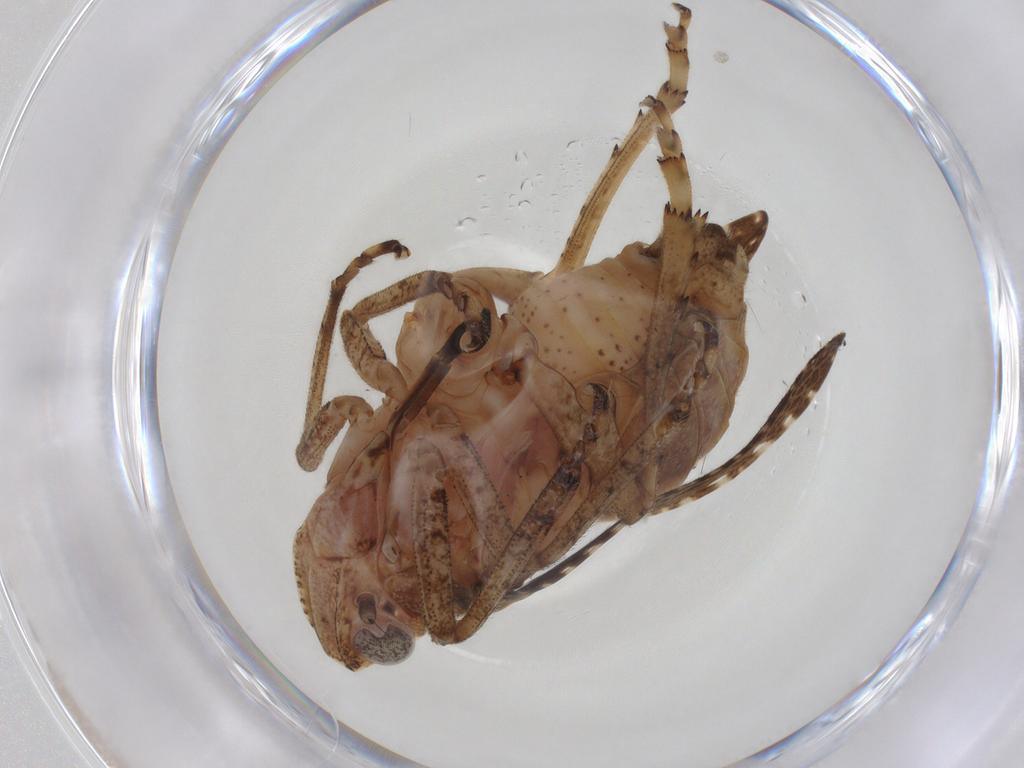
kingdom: Animalia
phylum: Arthropoda
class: Insecta
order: Hemiptera
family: Tropiduchidae
